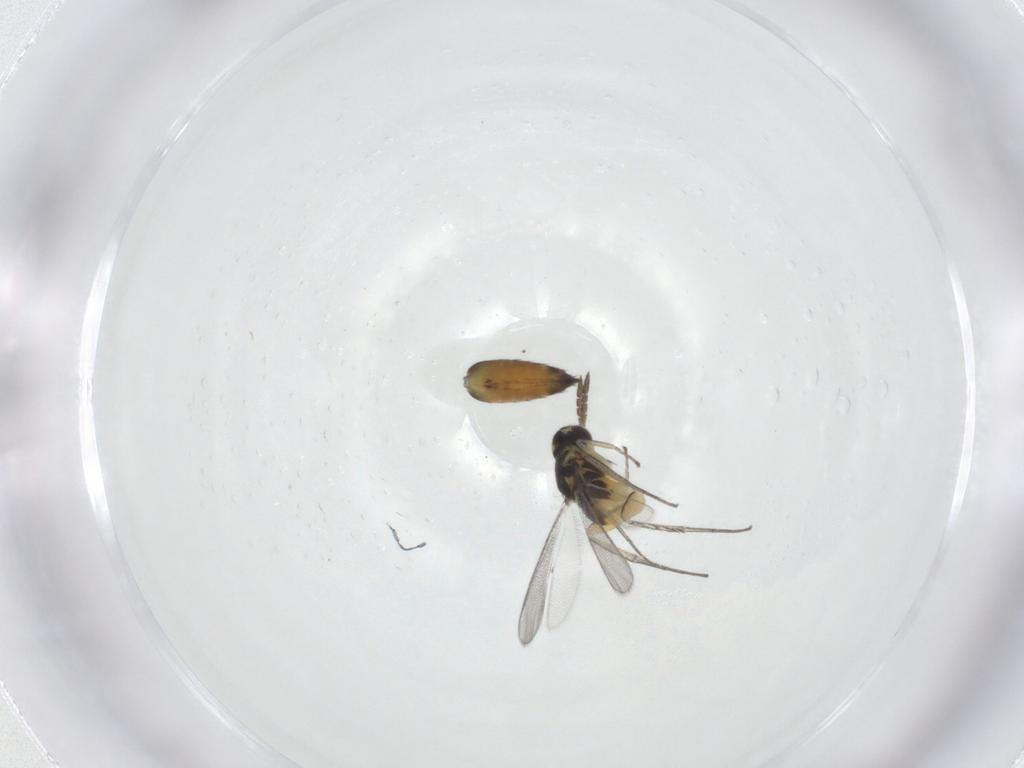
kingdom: Animalia
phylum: Arthropoda
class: Insecta
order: Hymenoptera
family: Eulophidae
